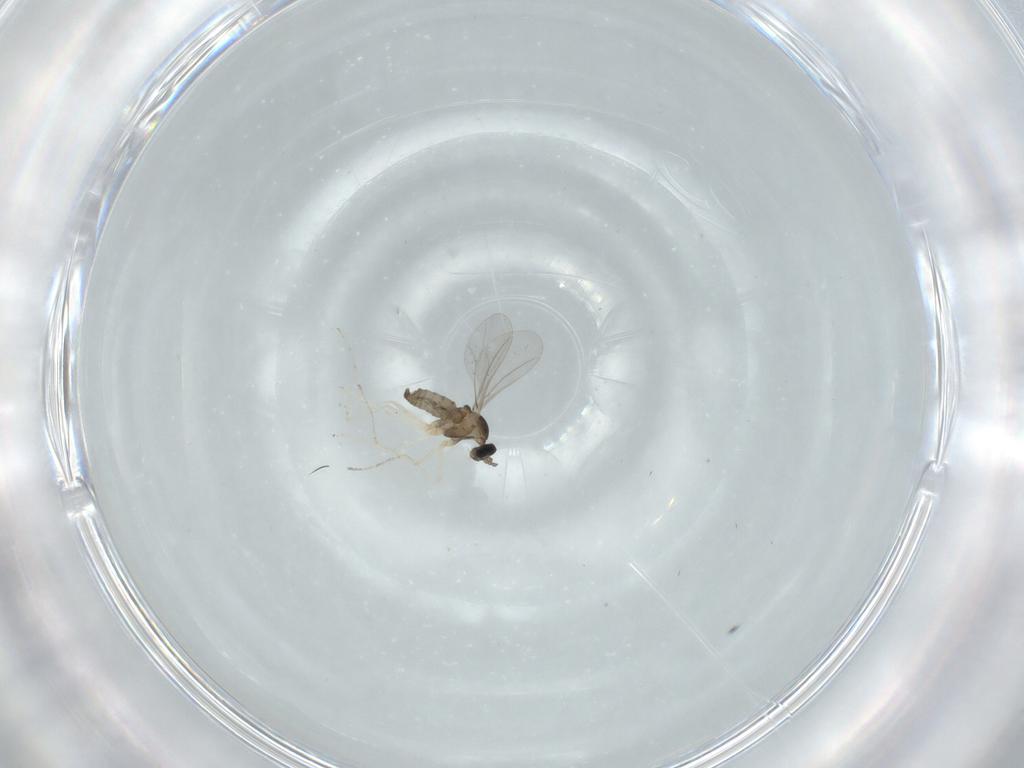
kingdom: Animalia
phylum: Arthropoda
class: Insecta
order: Diptera
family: Cecidomyiidae
